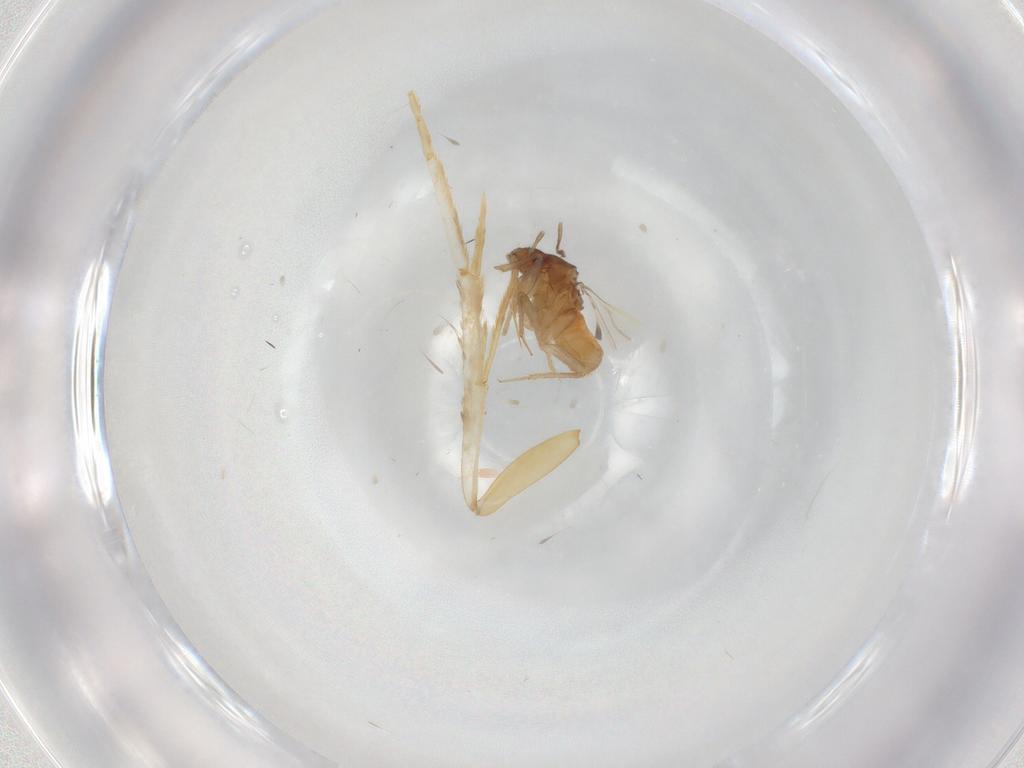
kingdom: Animalia
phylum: Arthropoda
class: Insecta
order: Hemiptera
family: Ceratocombidae
